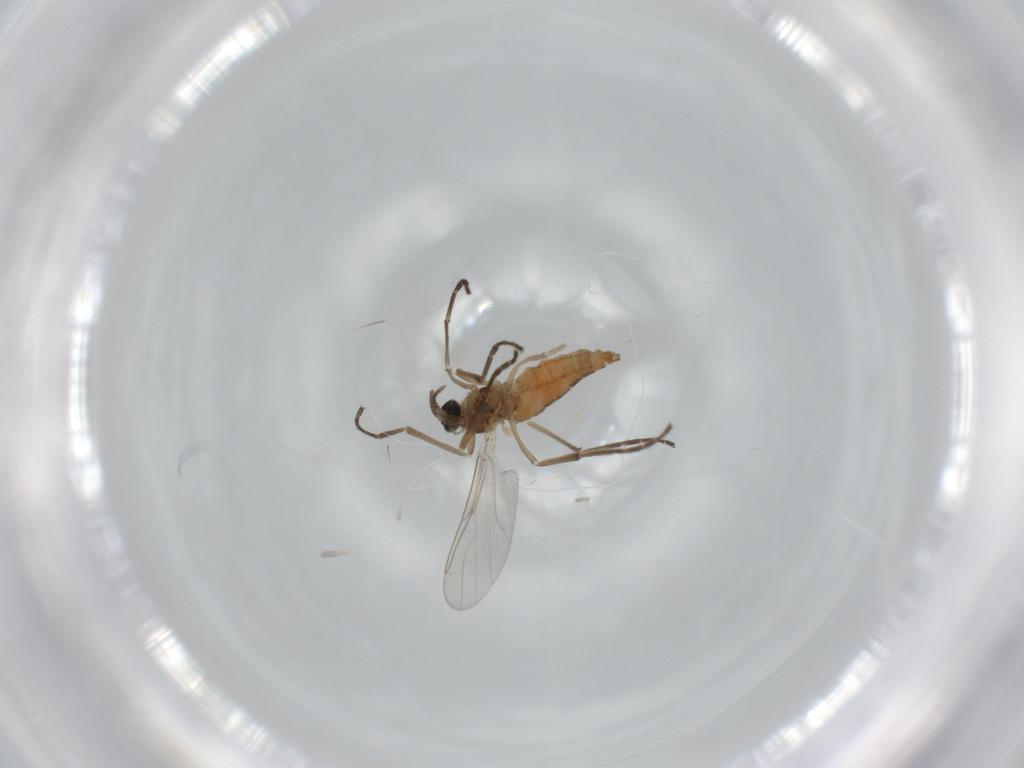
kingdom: Animalia
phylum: Arthropoda
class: Insecta
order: Diptera
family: Cecidomyiidae
